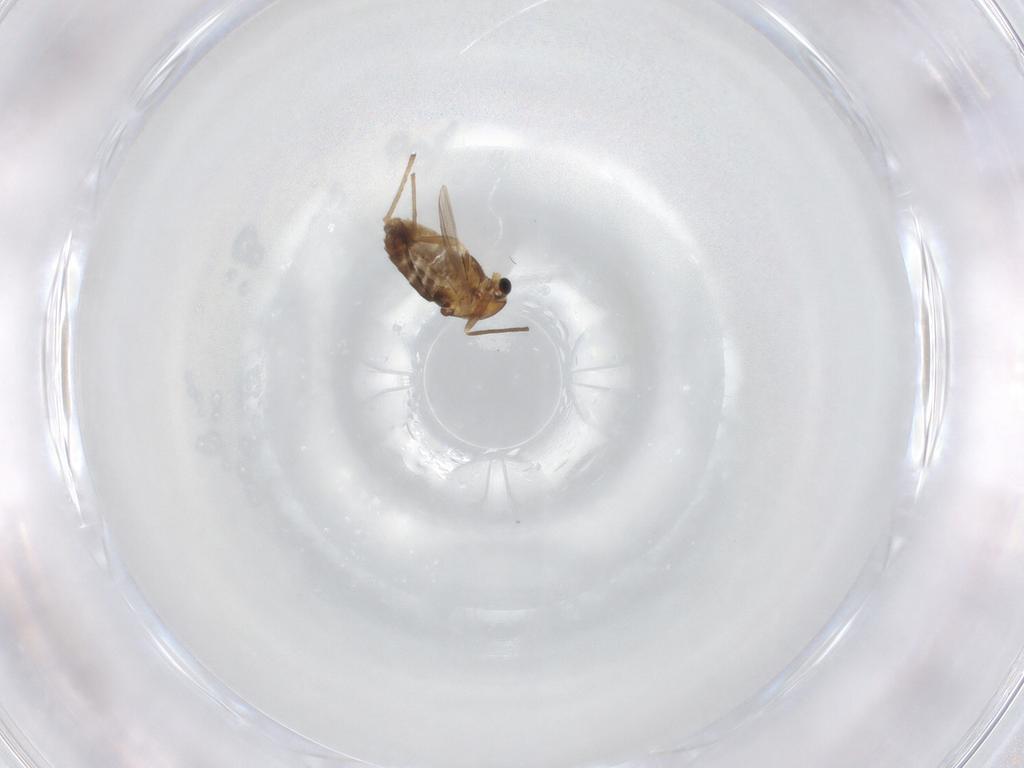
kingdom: Animalia
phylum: Arthropoda
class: Insecta
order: Diptera
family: Chironomidae
